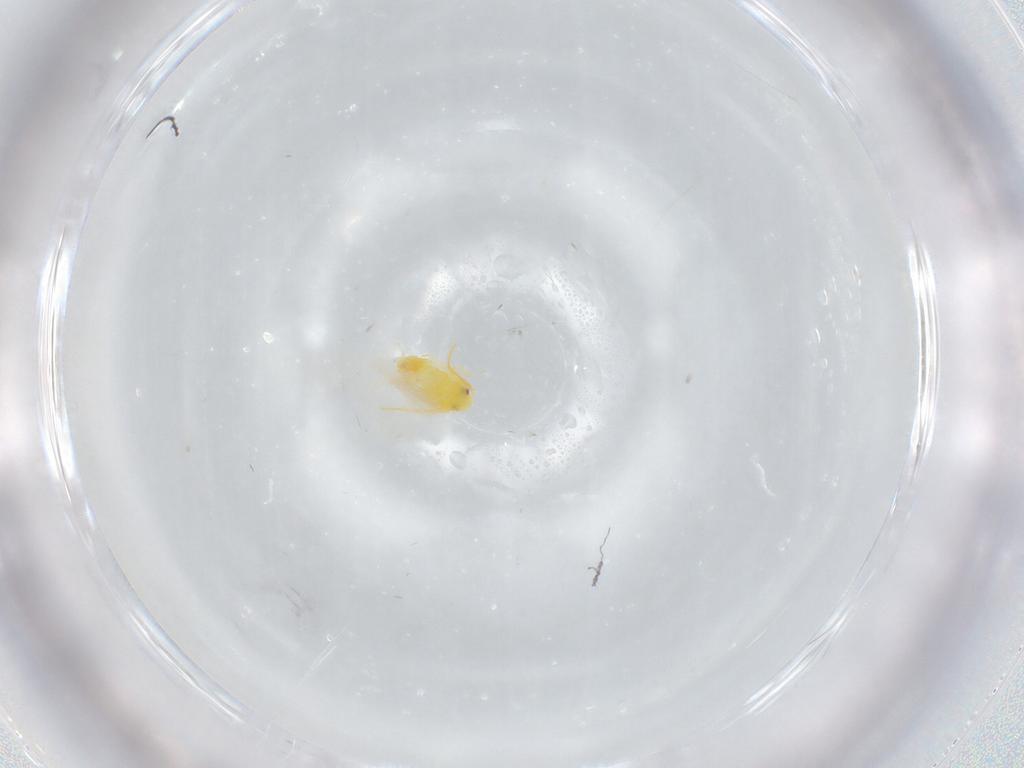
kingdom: Animalia
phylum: Arthropoda
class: Insecta
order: Hemiptera
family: Aleyrodidae
